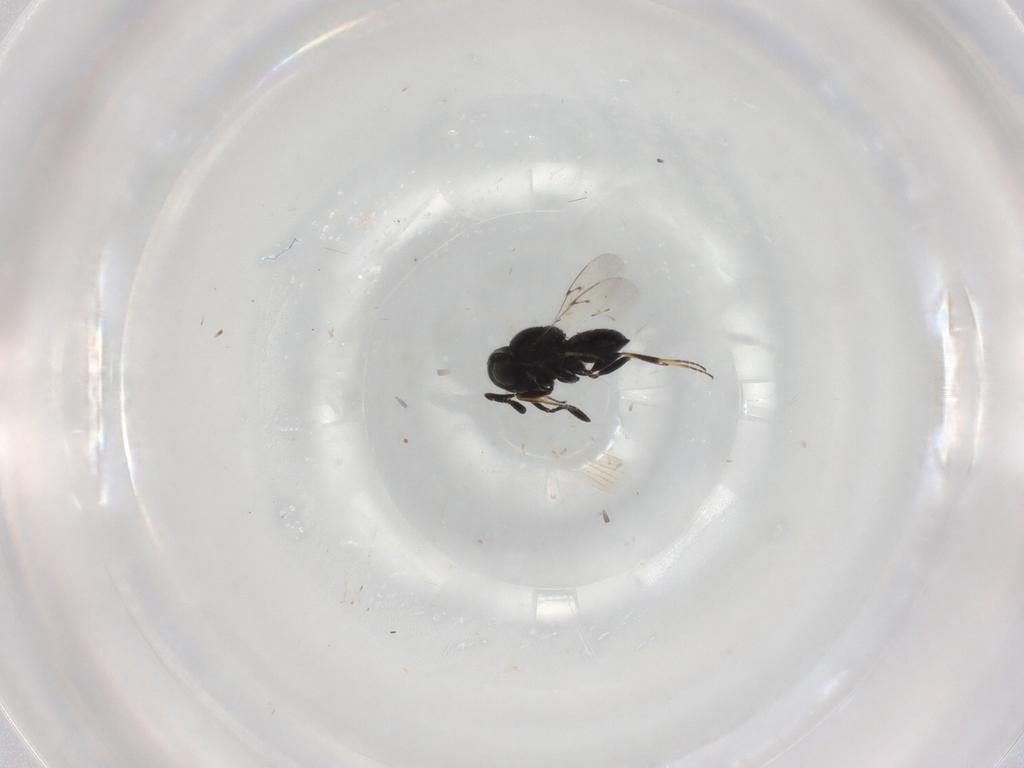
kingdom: Animalia
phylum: Arthropoda
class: Insecta
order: Hymenoptera
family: Scelionidae
